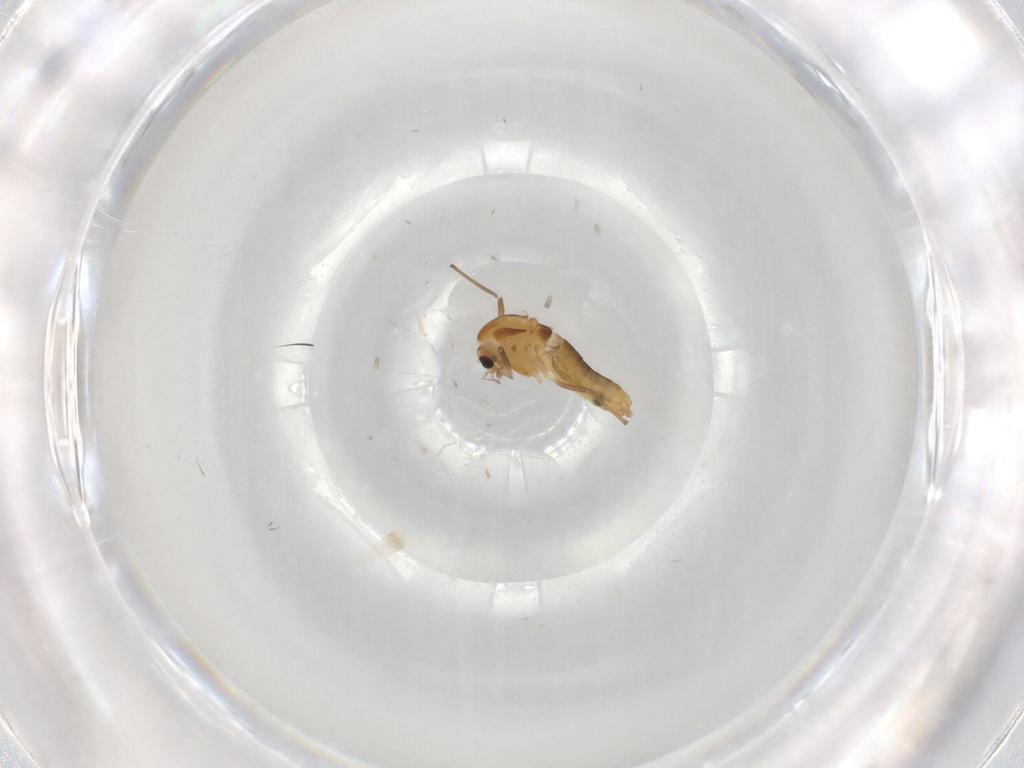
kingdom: Animalia
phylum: Arthropoda
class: Insecta
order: Diptera
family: Chironomidae
